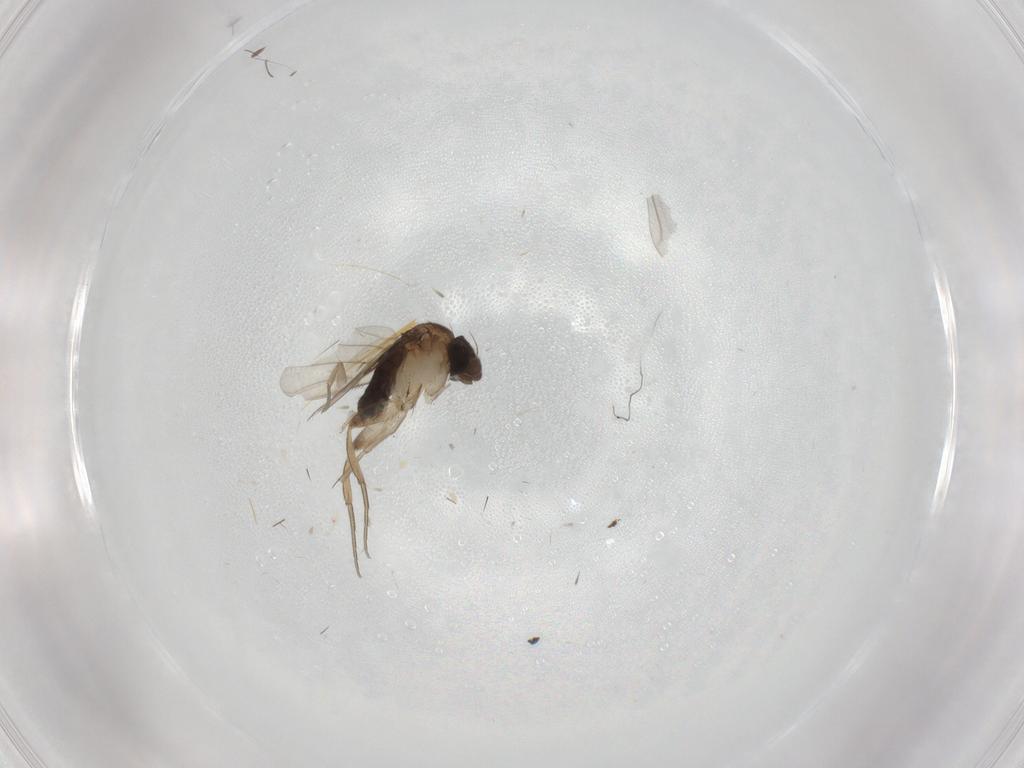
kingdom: Animalia
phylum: Arthropoda
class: Insecta
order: Diptera
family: Phoridae
